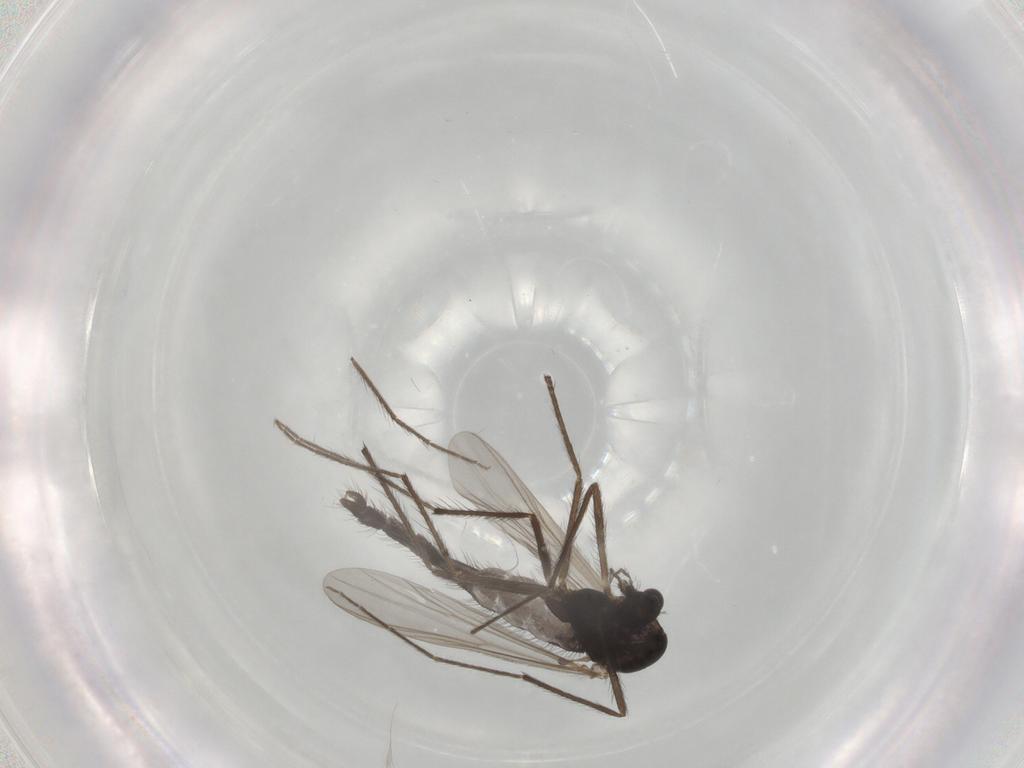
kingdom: Animalia
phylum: Arthropoda
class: Insecta
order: Diptera
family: Chironomidae
